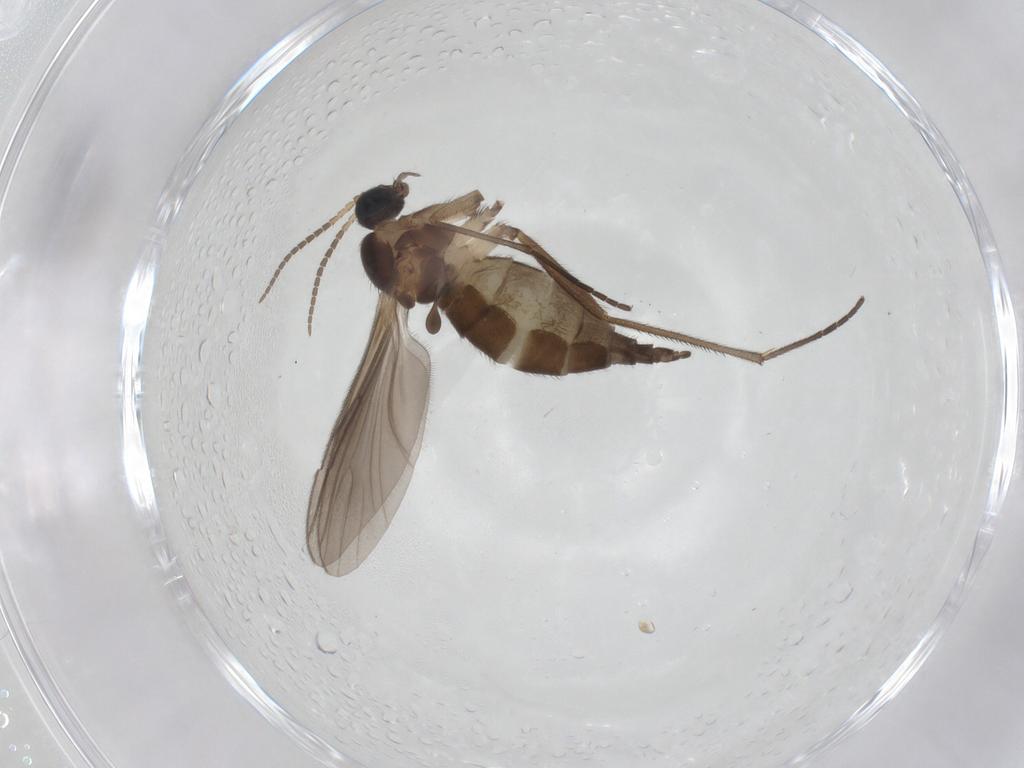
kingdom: Animalia
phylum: Arthropoda
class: Insecta
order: Diptera
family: Sciaridae
